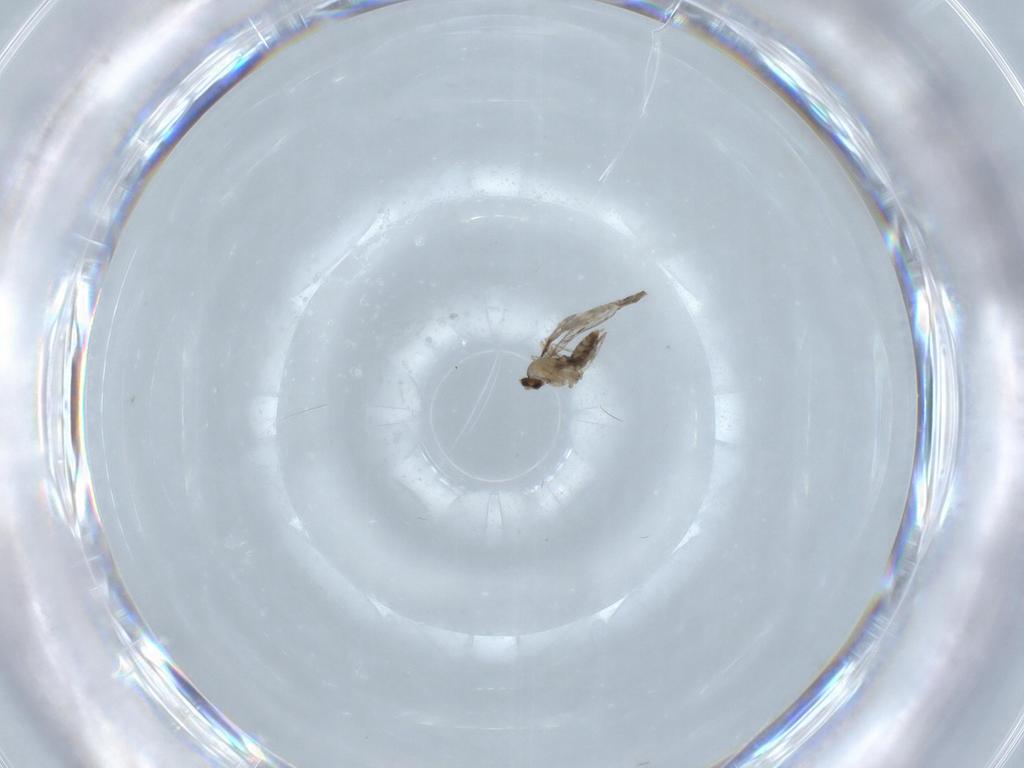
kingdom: Animalia
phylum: Arthropoda
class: Insecta
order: Diptera
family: Cecidomyiidae
